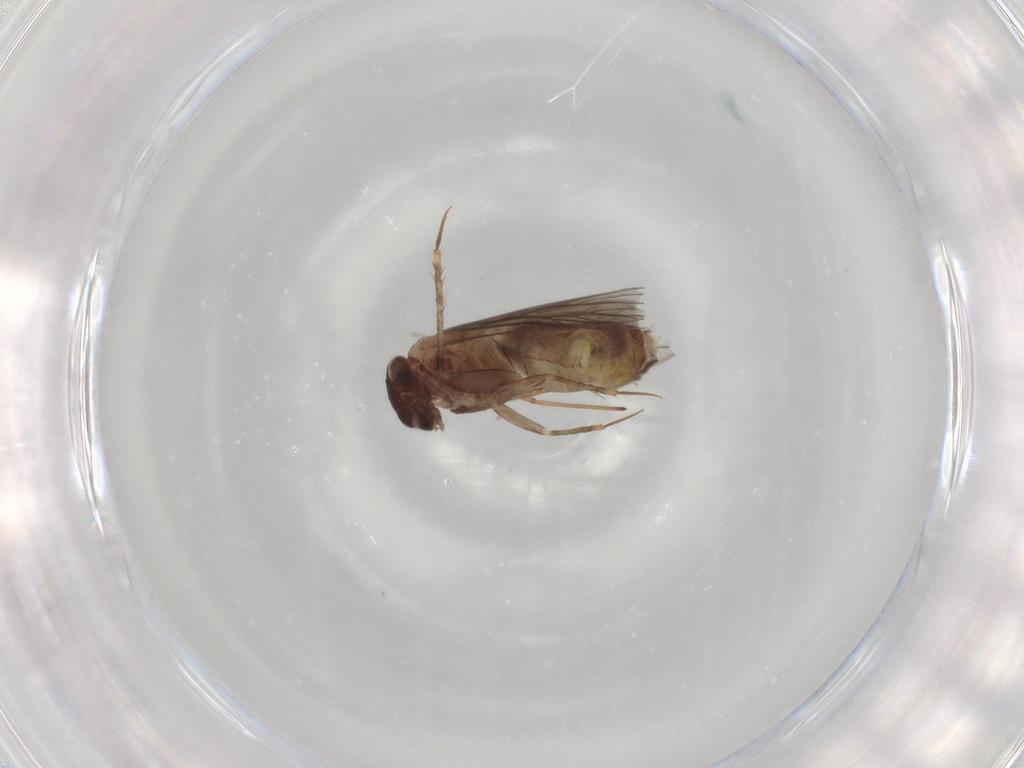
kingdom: Animalia
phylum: Arthropoda
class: Insecta
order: Psocodea
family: Lepidopsocidae
